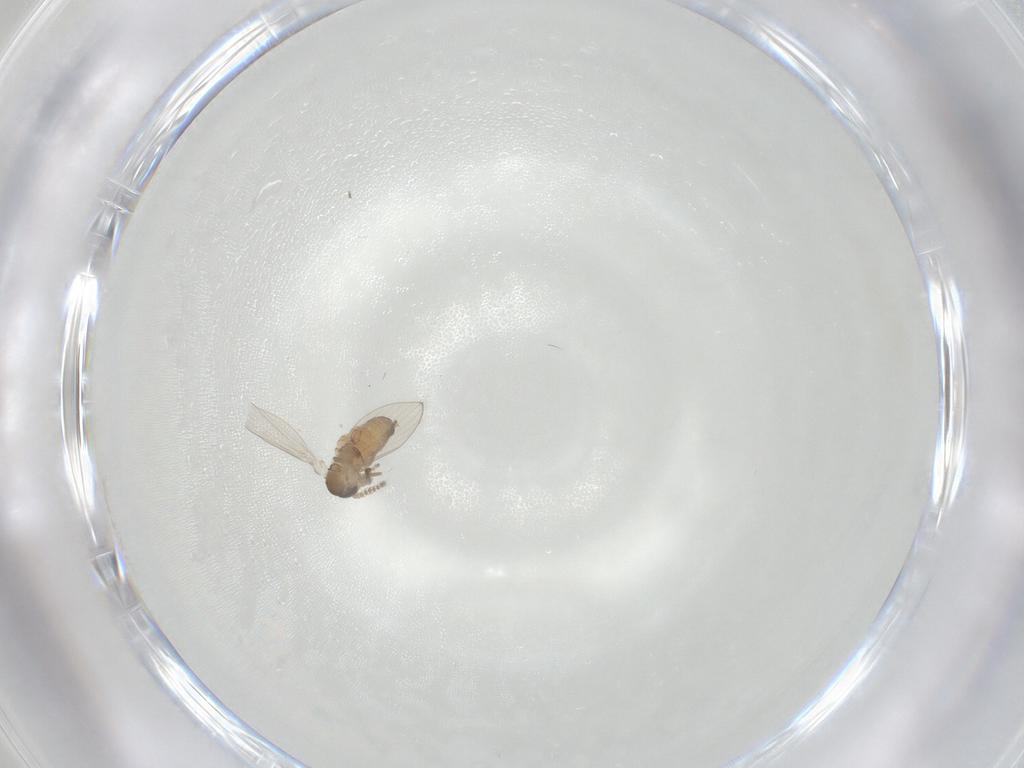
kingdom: Animalia
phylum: Arthropoda
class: Insecta
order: Diptera
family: Psychodidae
